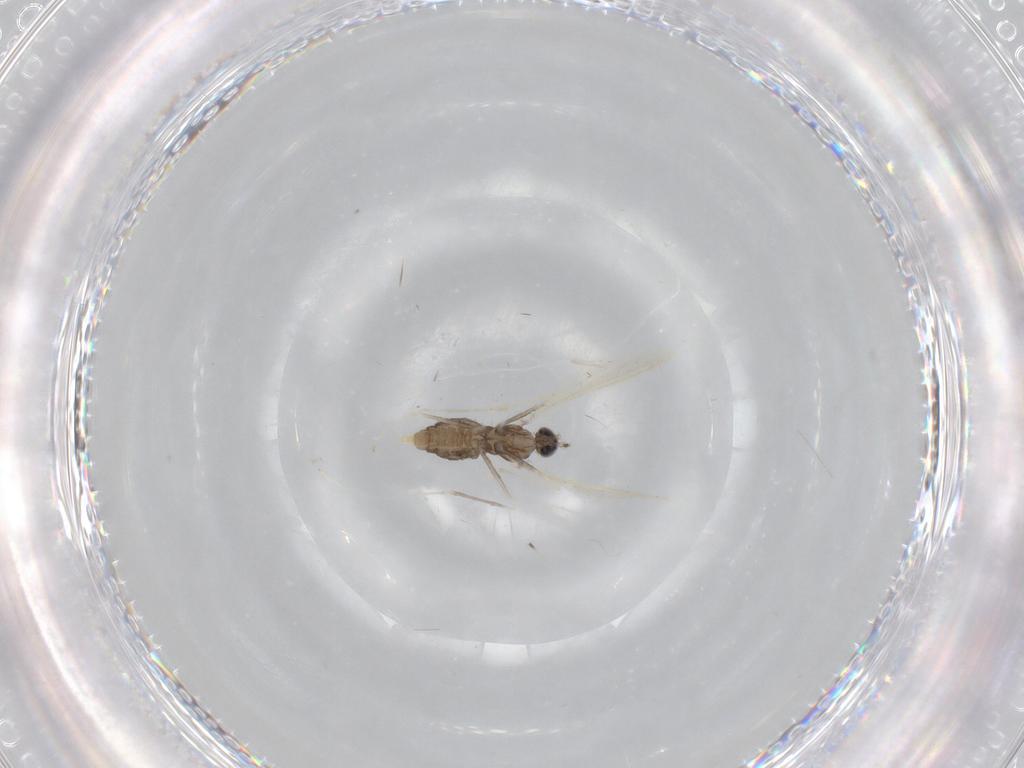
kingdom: Animalia
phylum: Arthropoda
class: Insecta
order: Diptera
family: Cecidomyiidae
